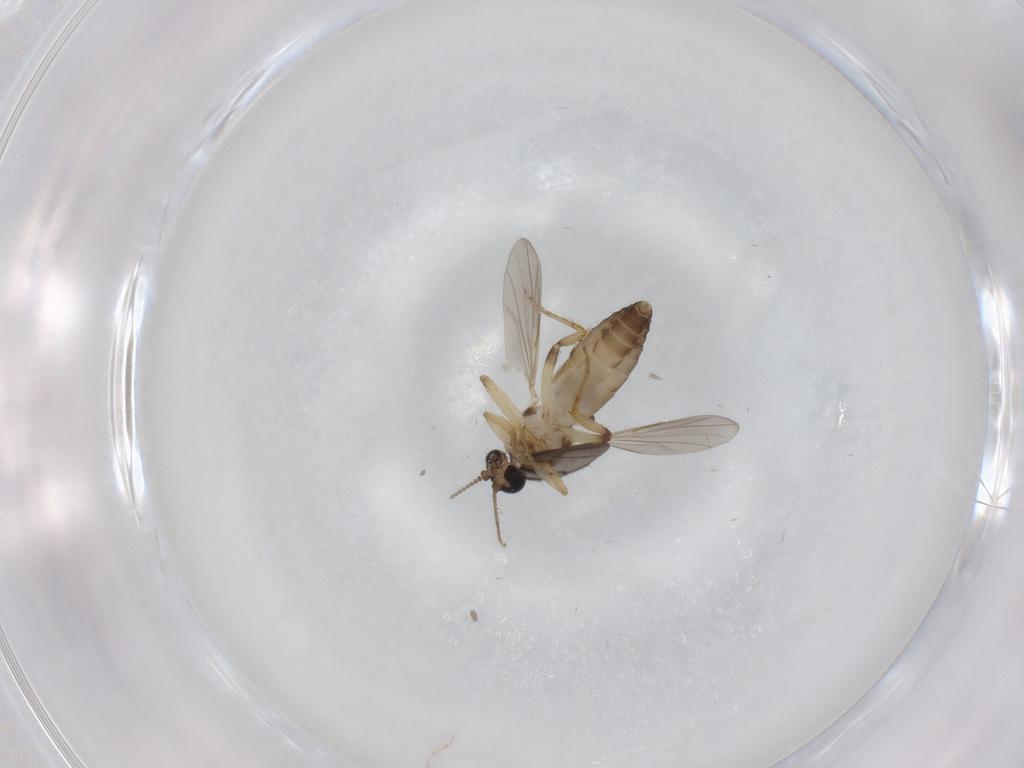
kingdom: Animalia
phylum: Arthropoda
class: Insecta
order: Diptera
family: Ceratopogonidae
